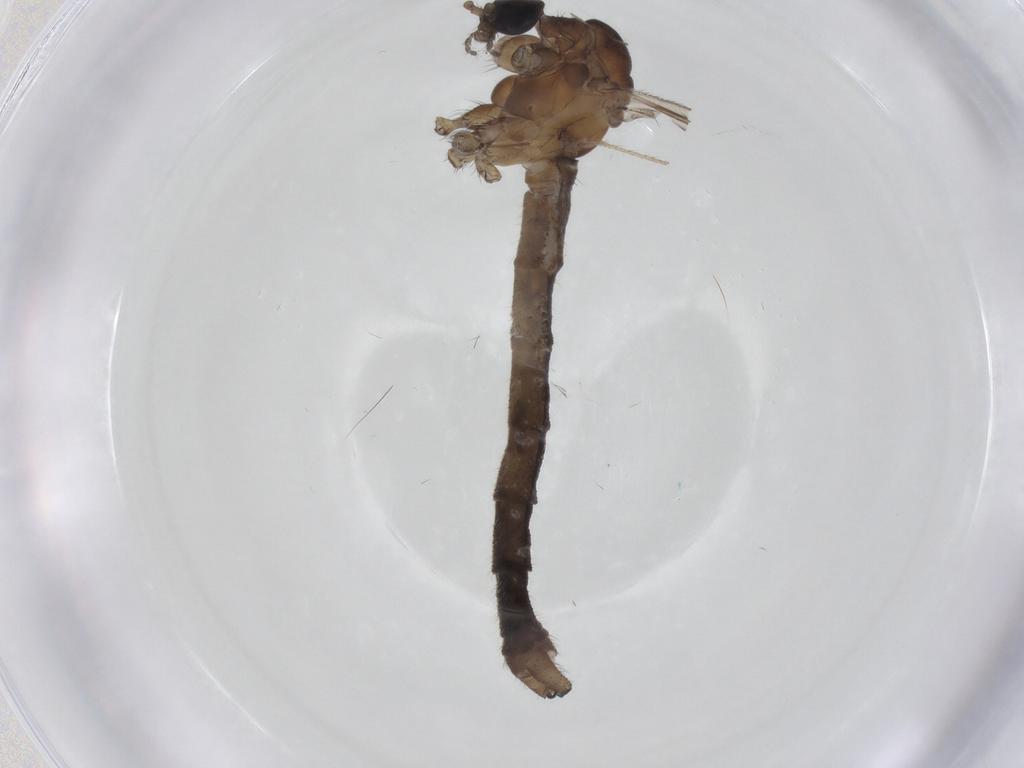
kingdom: Animalia
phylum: Arthropoda
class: Insecta
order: Diptera
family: Limoniidae
